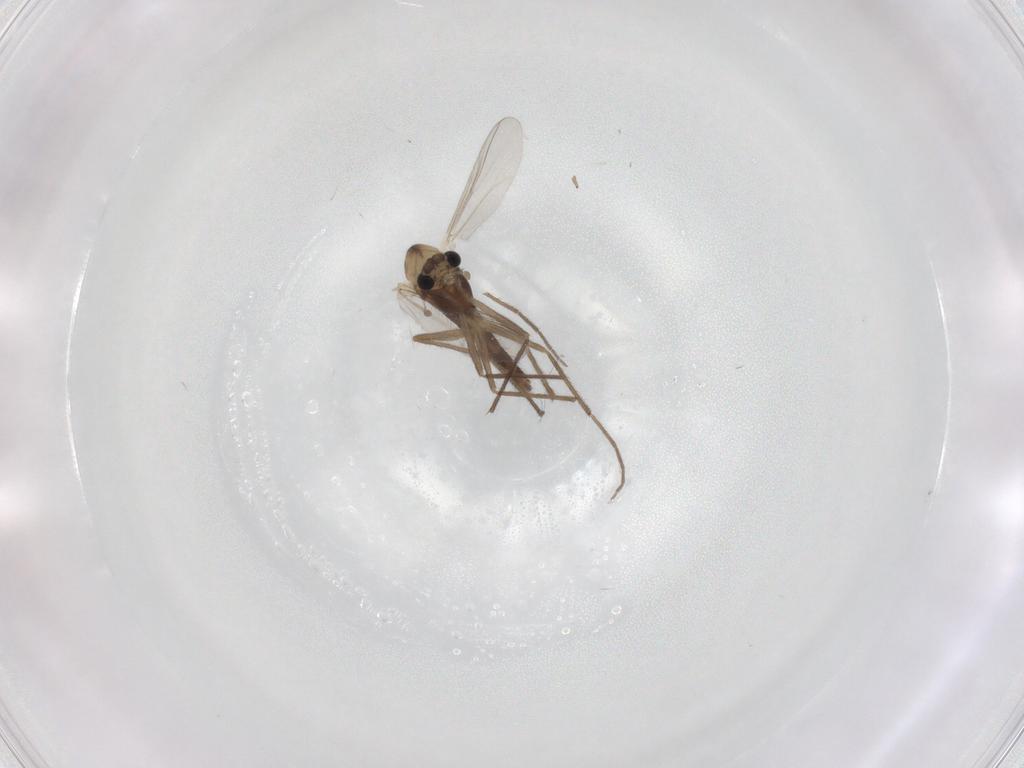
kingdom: Animalia
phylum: Arthropoda
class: Insecta
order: Diptera
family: Chironomidae
